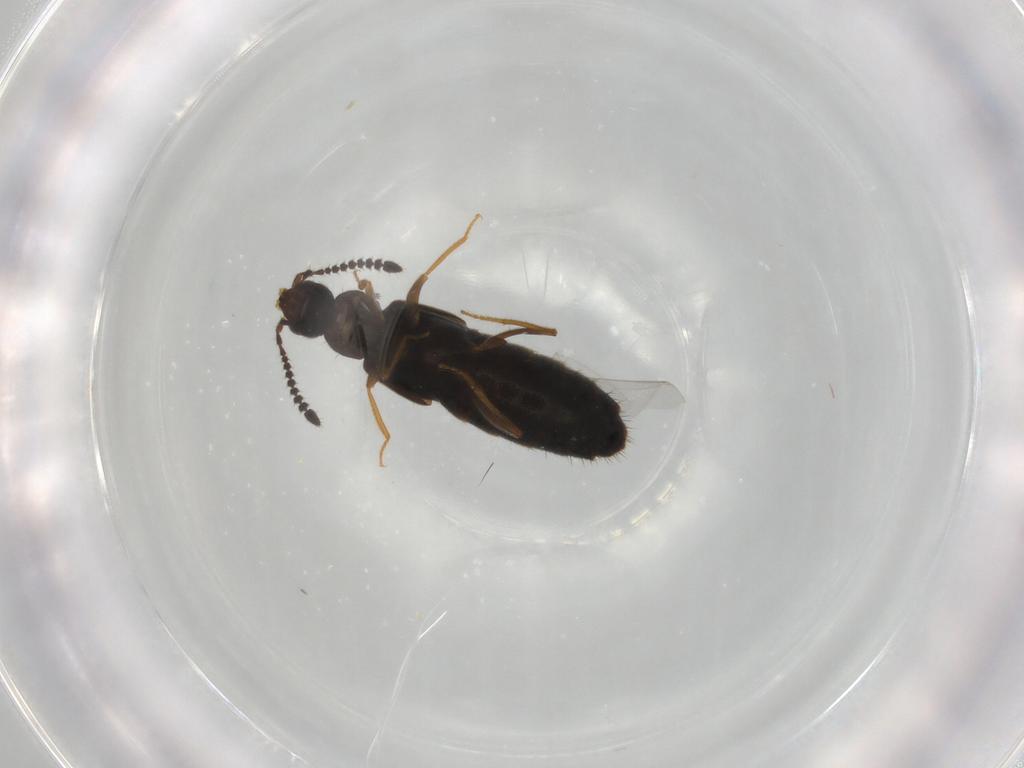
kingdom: Animalia
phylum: Arthropoda
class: Insecta
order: Coleoptera
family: Staphylinidae
